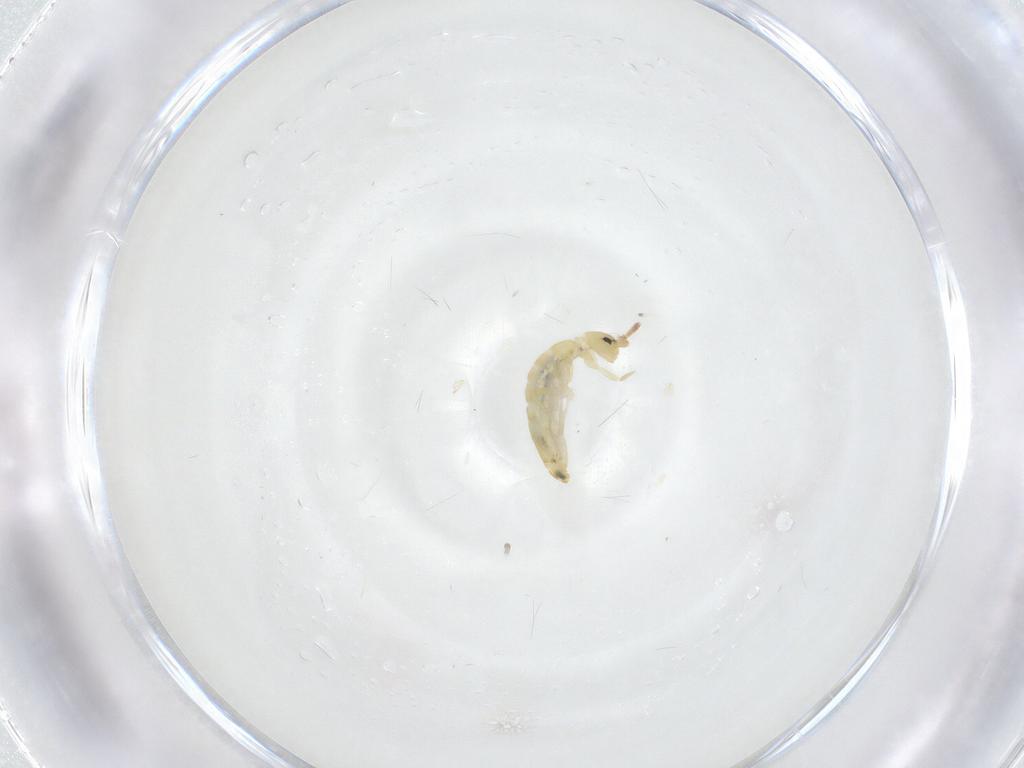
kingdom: Animalia
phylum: Arthropoda
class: Collembola
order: Entomobryomorpha
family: Entomobryidae
